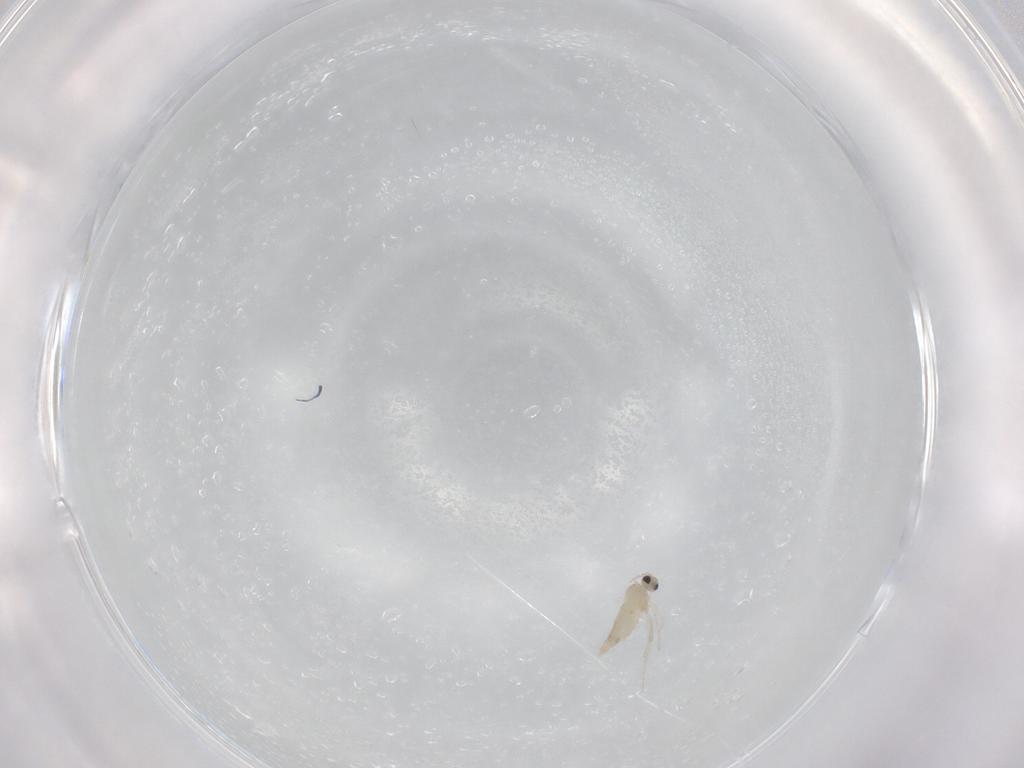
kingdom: Animalia
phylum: Arthropoda
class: Insecta
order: Diptera
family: Cecidomyiidae
